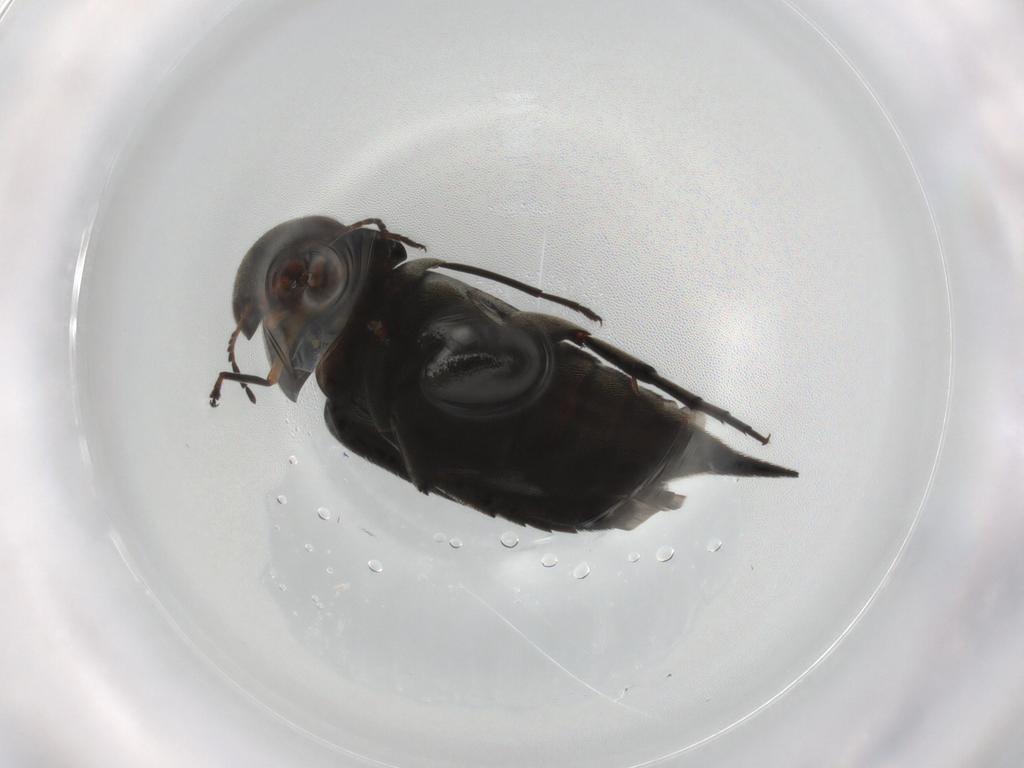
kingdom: Animalia
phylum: Arthropoda
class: Insecta
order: Coleoptera
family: Mordellidae
